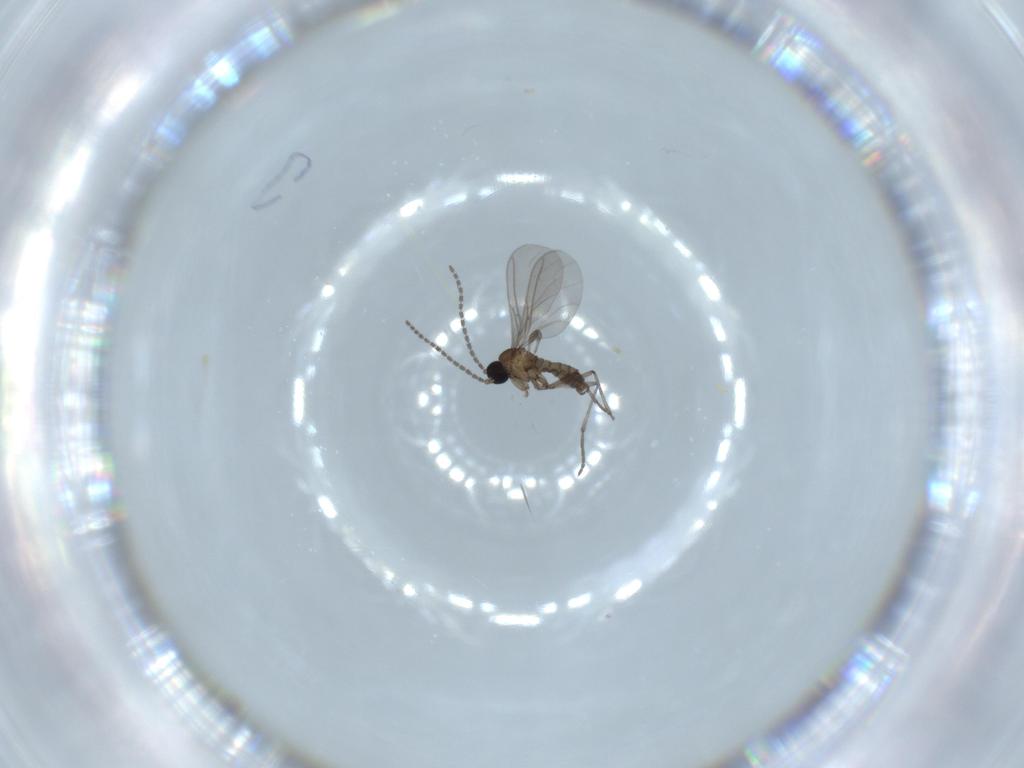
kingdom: Animalia
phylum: Arthropoda
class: Insecta
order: Diptera
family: Sciaridae
